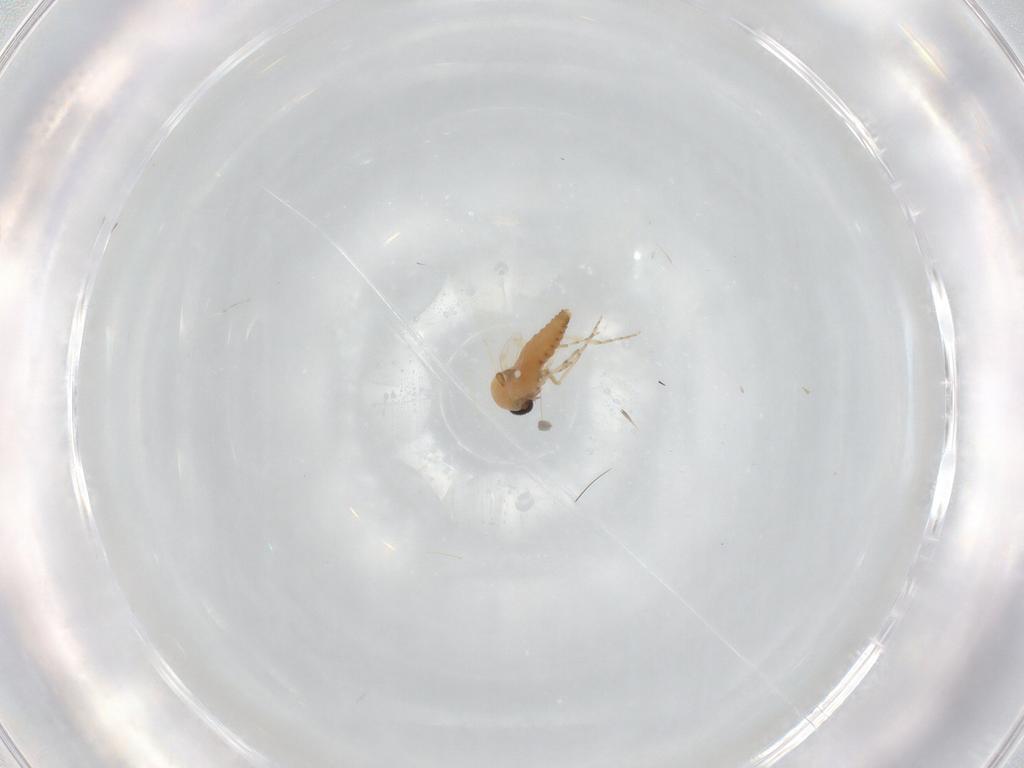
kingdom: Animalia
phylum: Arthropoda
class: Insecta
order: Diptera
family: Ceratopogonidae
